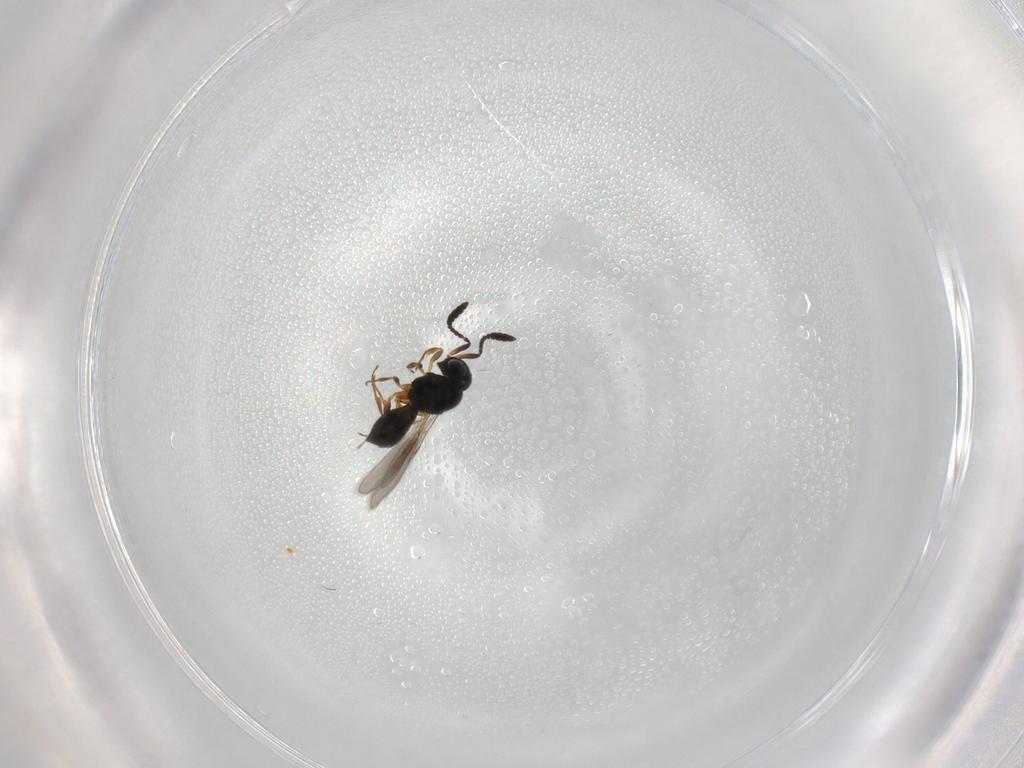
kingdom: Animalia
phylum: Arthropoda
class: Insecta
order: Hymenoptera
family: Scelionidae
